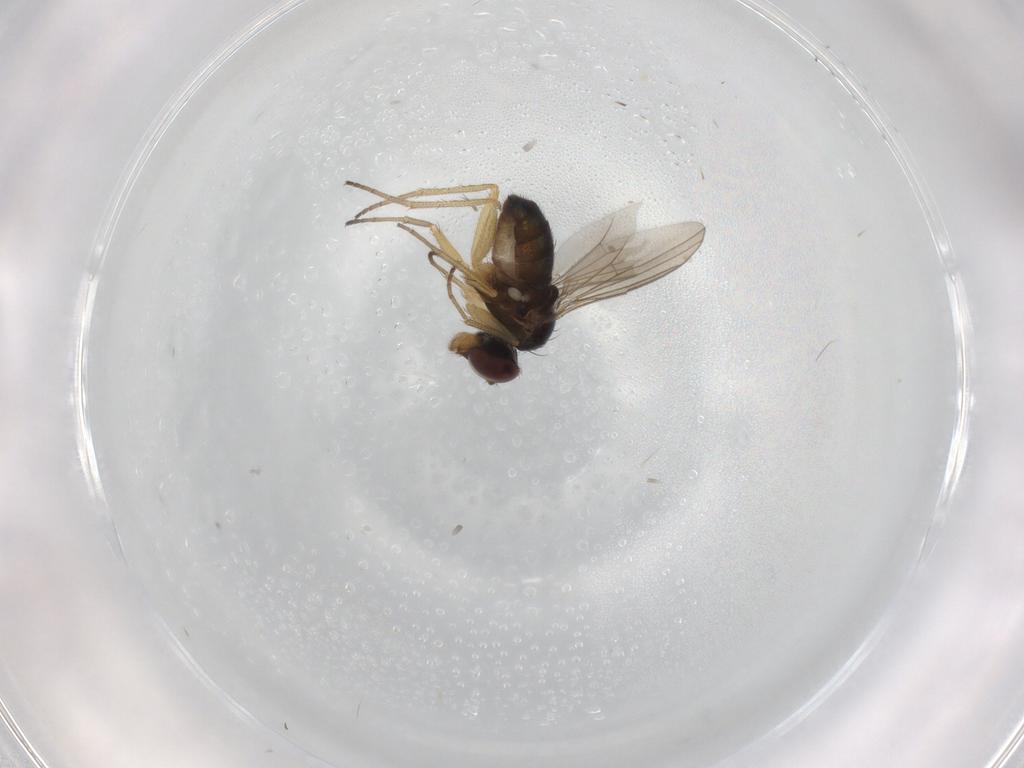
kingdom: Animalia
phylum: Arthropoda
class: Insecta
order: Diptera
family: Dolichopodidae
